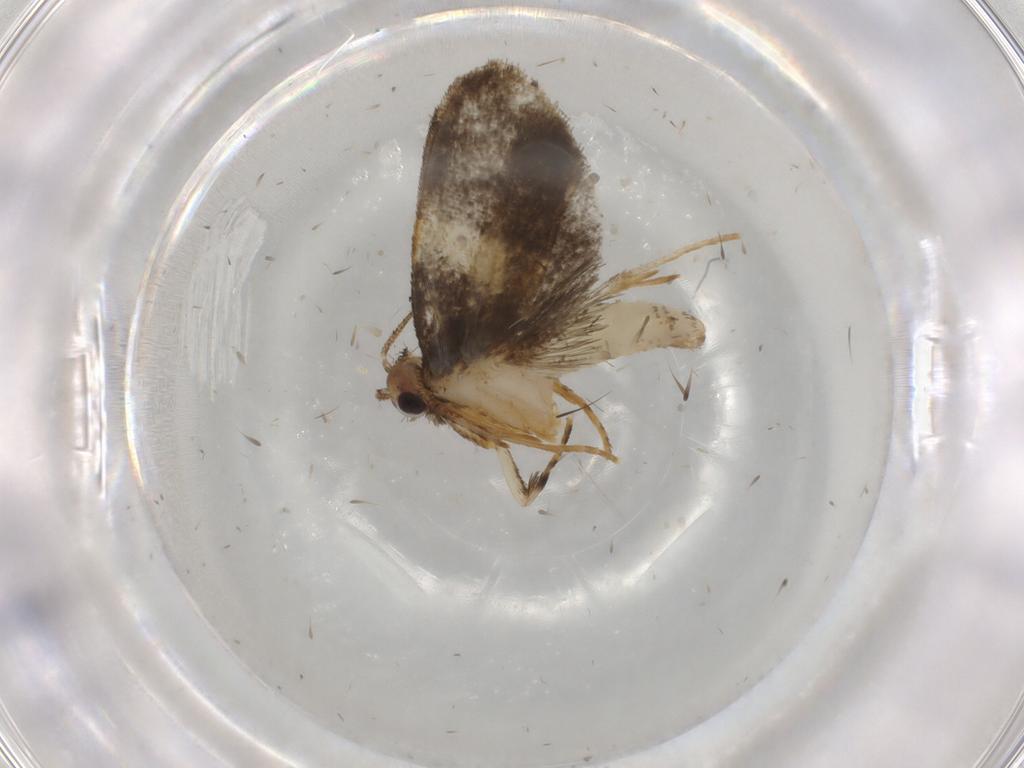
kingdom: Animalia
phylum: Arthropoda
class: Insecta
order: Lepidoptera
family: Psychidae
